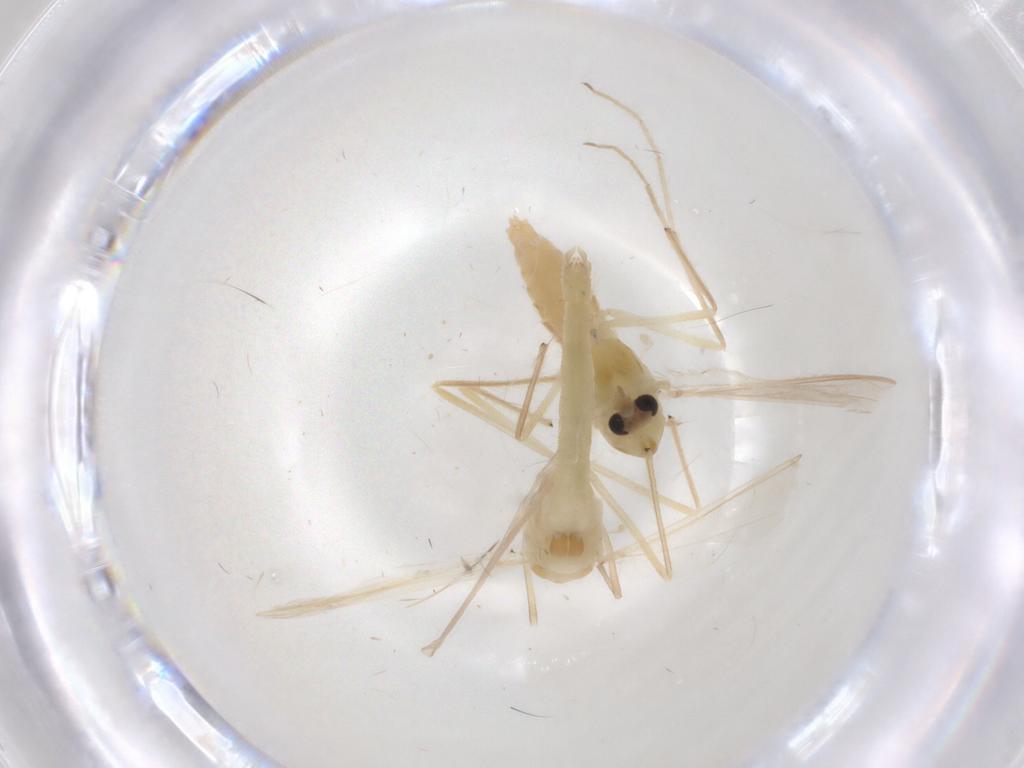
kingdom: Animalia
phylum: Arthropoda
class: Insecta
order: Diptera
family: Chironomidae
